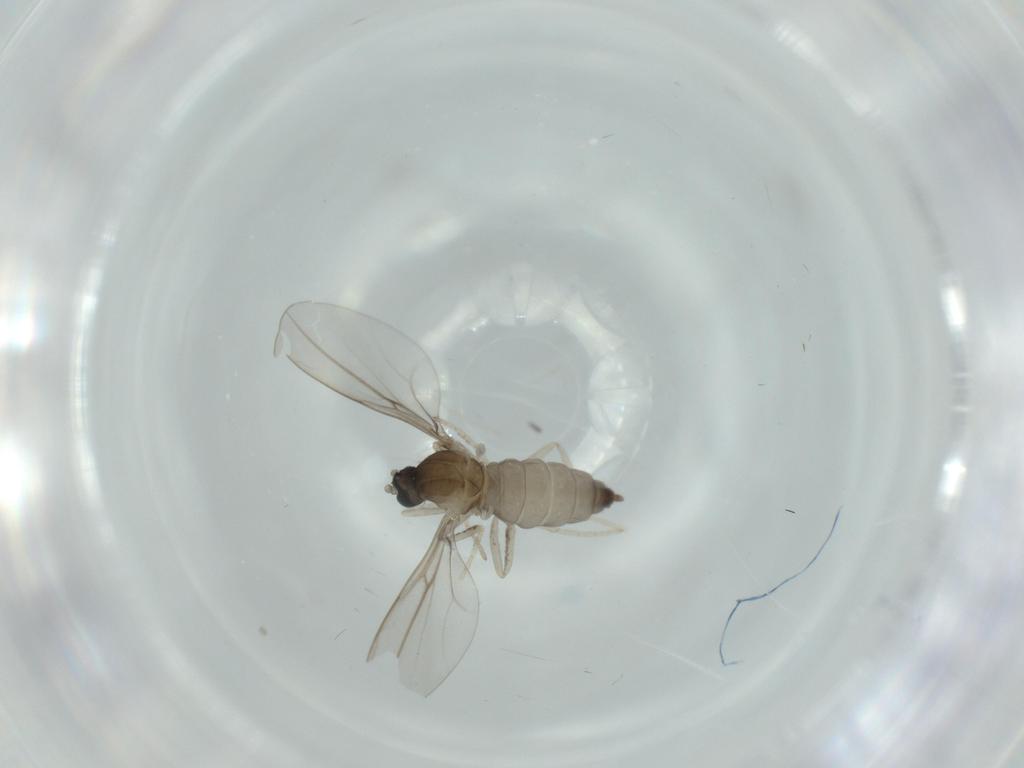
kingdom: Animalia
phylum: Arthropoda
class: Insecta
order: Diptera
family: Cecidomyiidae
